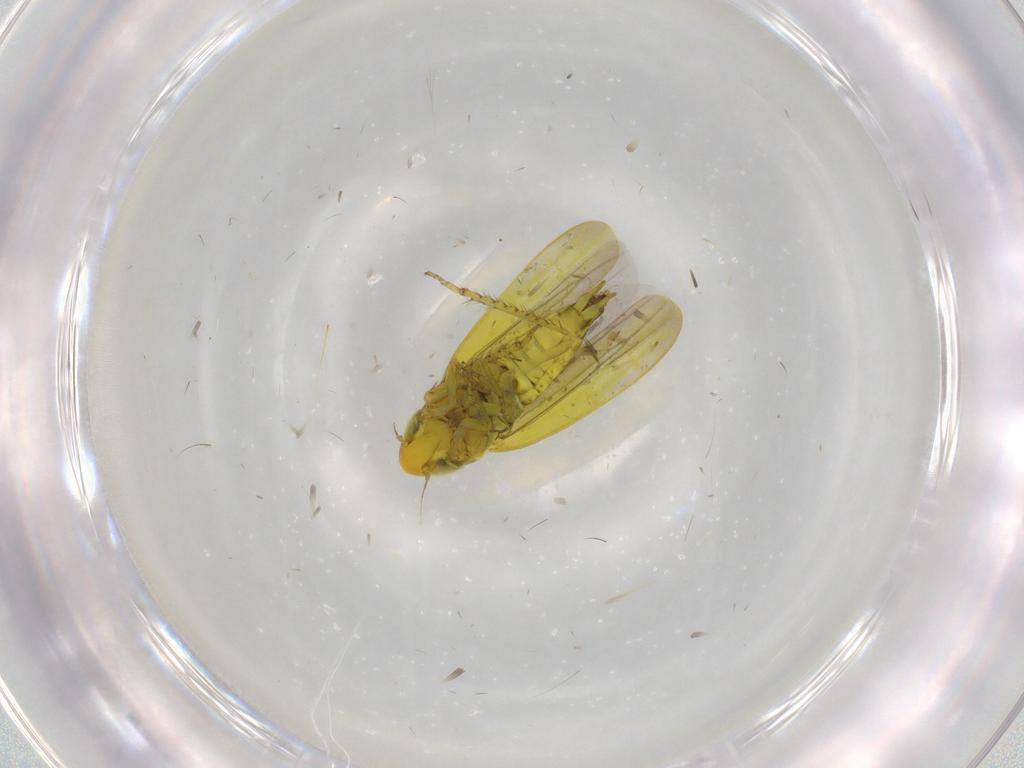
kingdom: Animalia
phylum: Arthropoda
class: Insecta
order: Hemiptera
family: Cicadellidae
